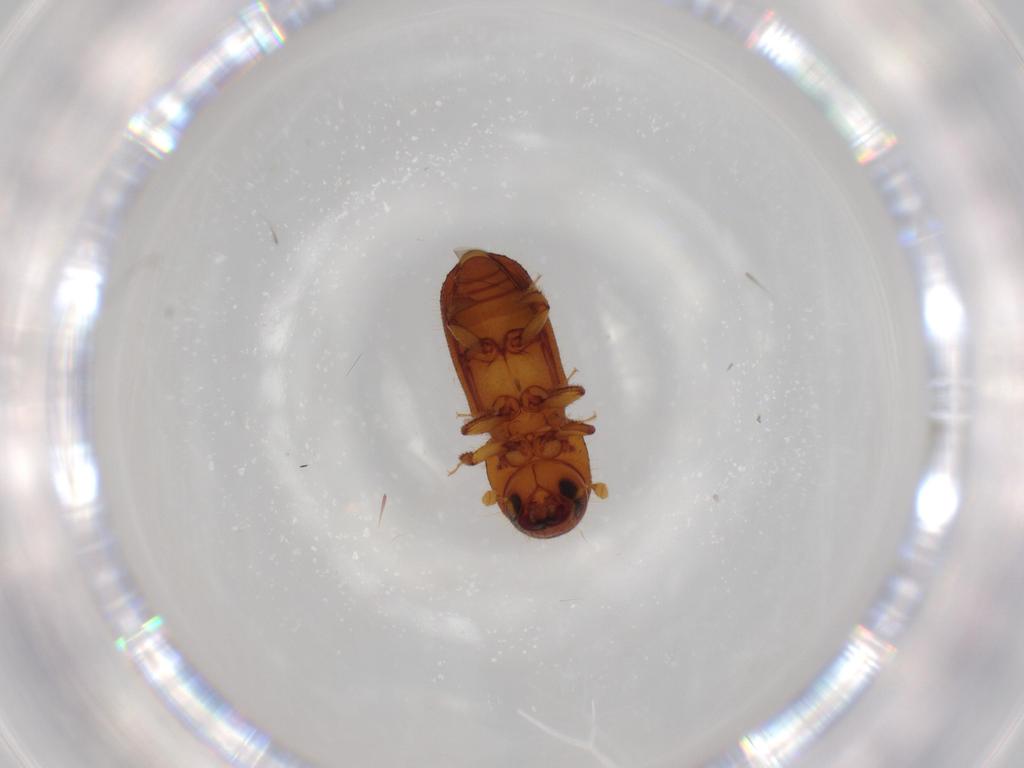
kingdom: Animalia
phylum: Arthropoda
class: Insecta
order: Coleoptera
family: Curculionidae
